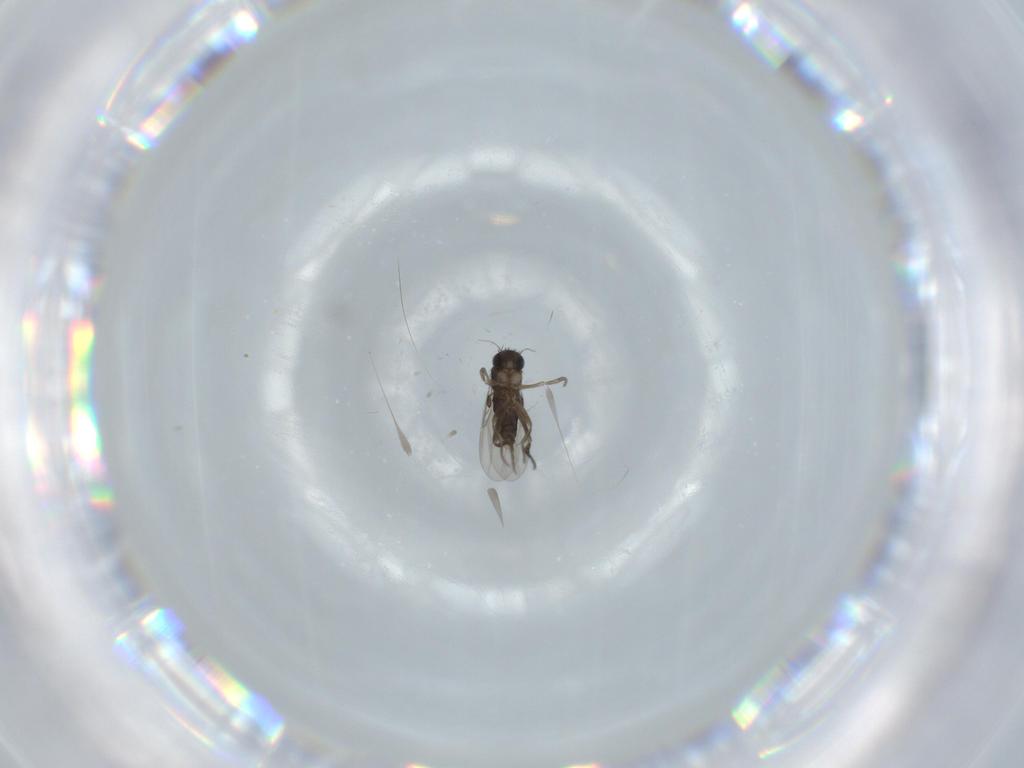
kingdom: Animalia
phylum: Arthropoda
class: Insecta
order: Diptera
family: Phoridae
